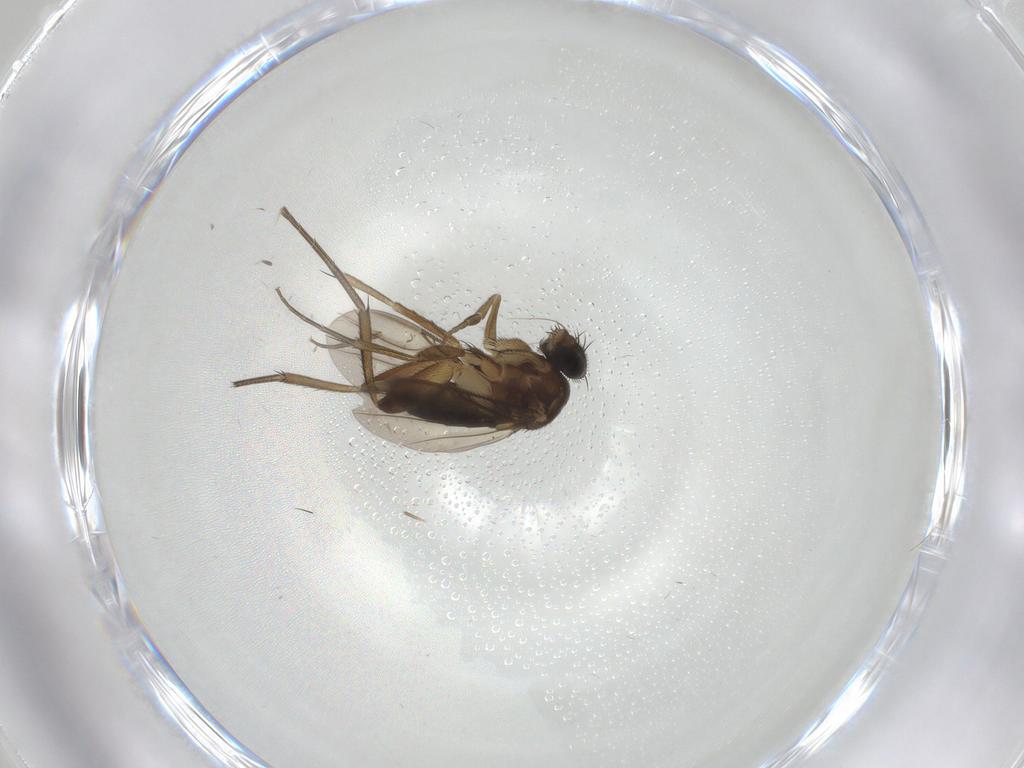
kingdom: Animalia
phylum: Arthropoda
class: Insecta
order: Diptera
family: Phoridae
